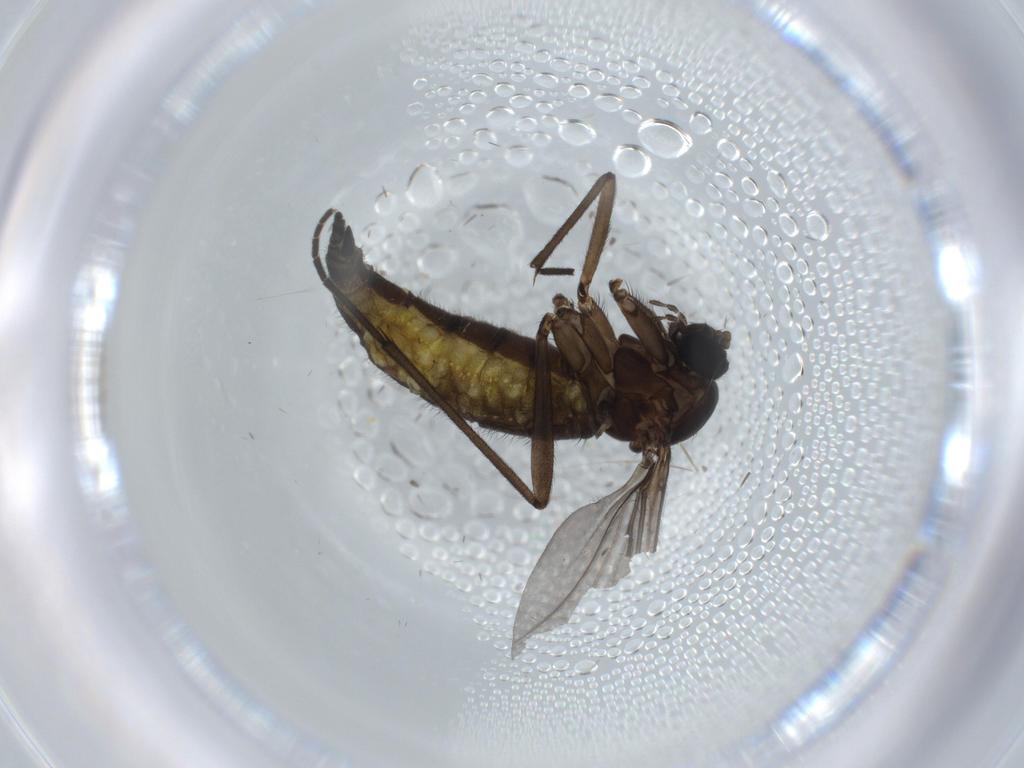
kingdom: Animalia
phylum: Arthropoda
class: Insecta
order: Diptera
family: Sciaridae
